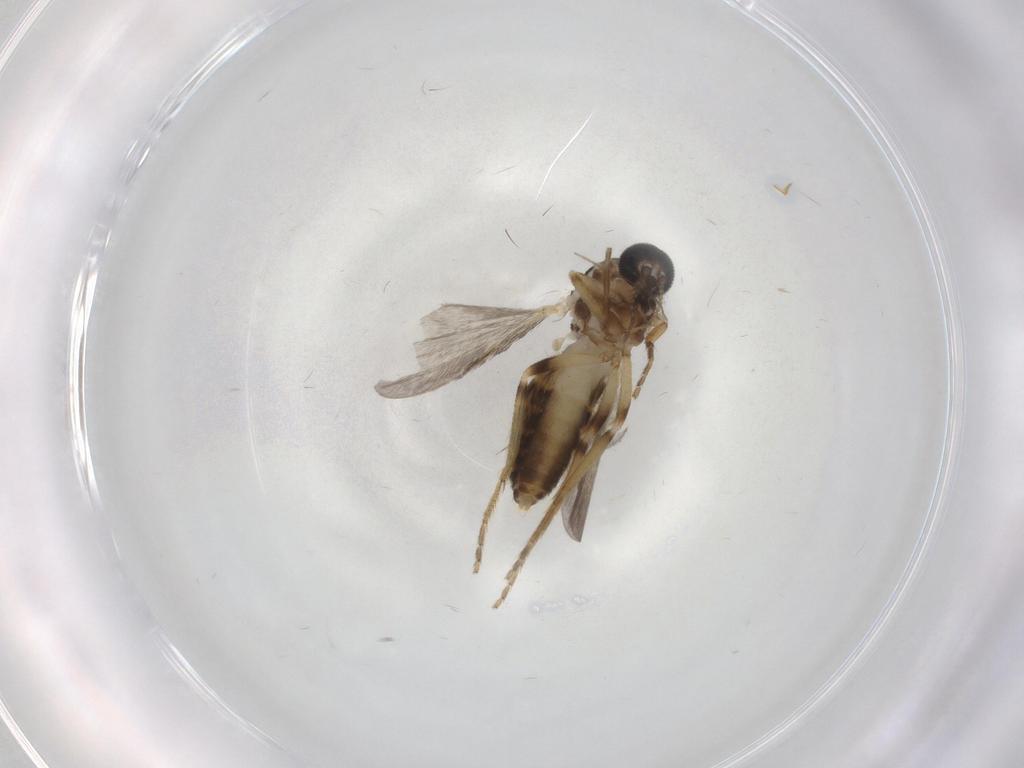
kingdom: Animalia
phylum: Arthropoda
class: Insecta
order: Diptera
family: Ceratopogonidae
